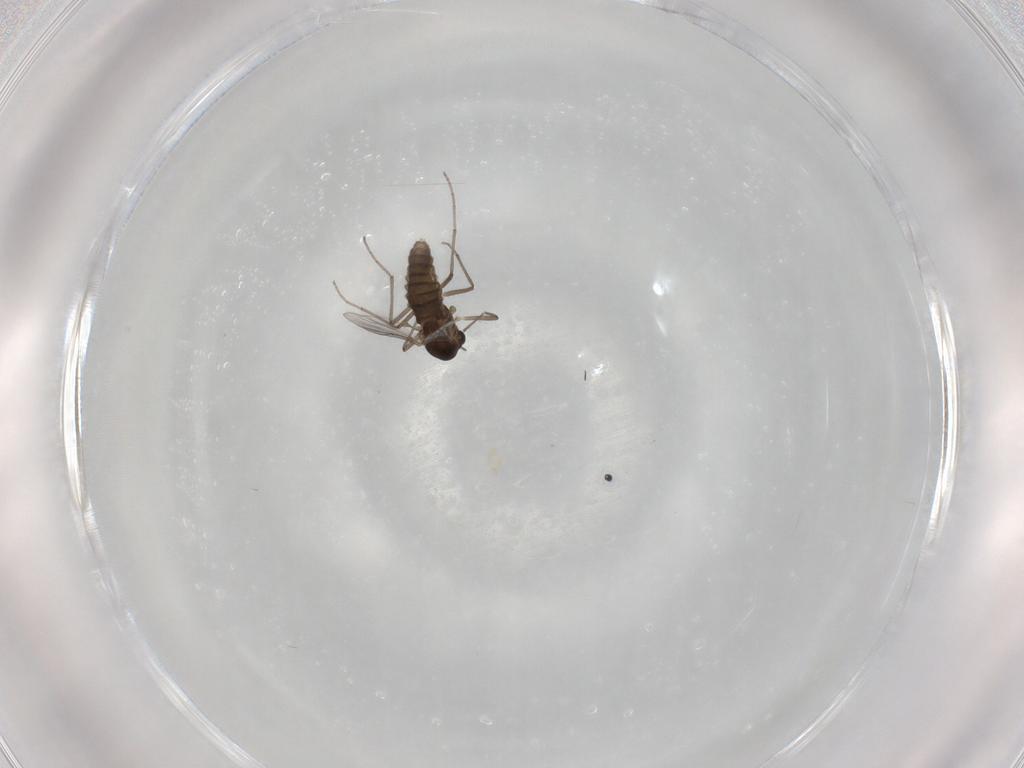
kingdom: Animalia
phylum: Arthropoda
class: Insecta
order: Diptera
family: Chironomidae
